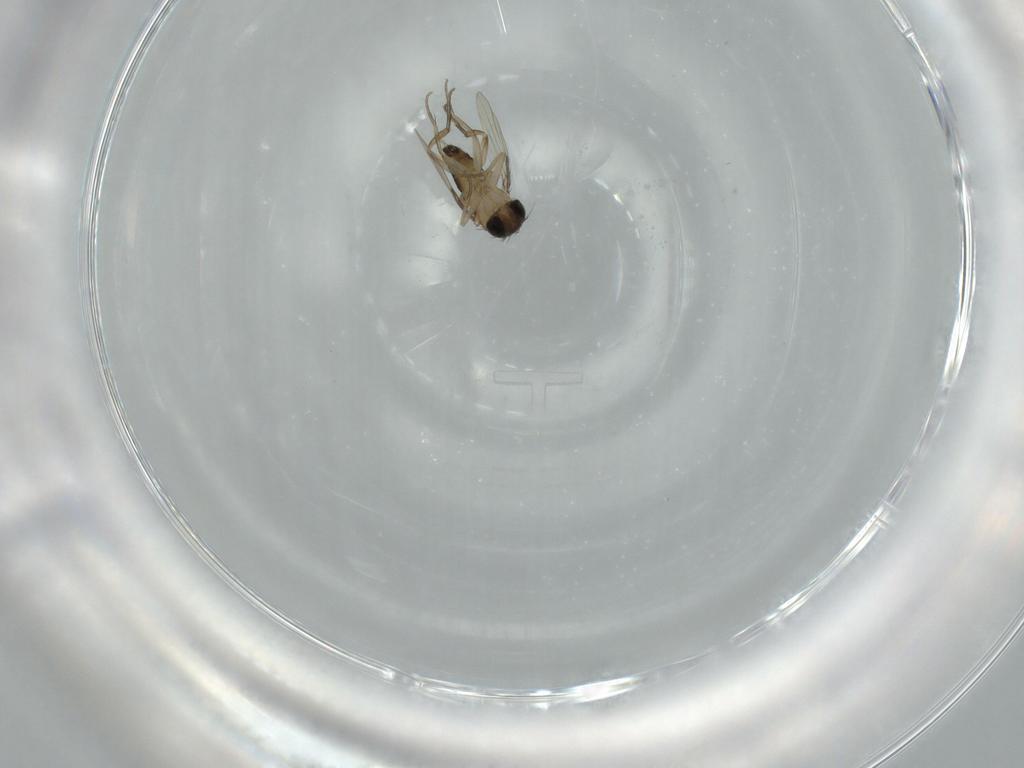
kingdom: Animalia
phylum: Arthropoda
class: Insecta
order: Diptera
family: Phoridae
